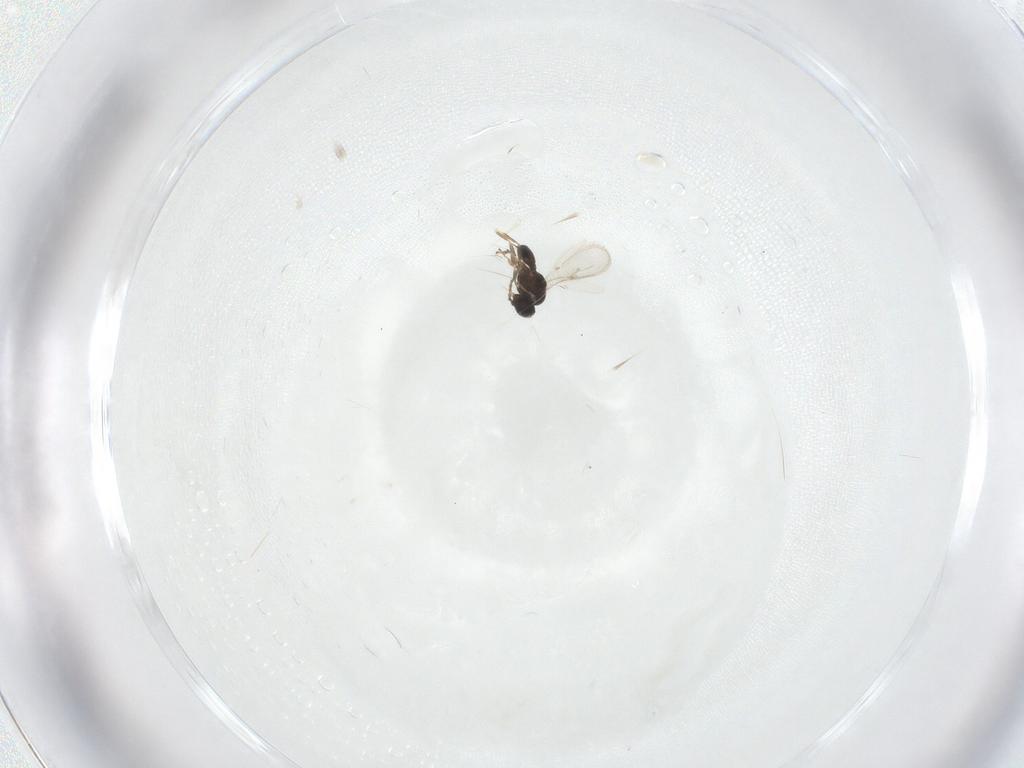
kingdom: Animalia
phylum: Arthropoda
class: Insecta
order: Hymenoptera
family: Scelionidae
